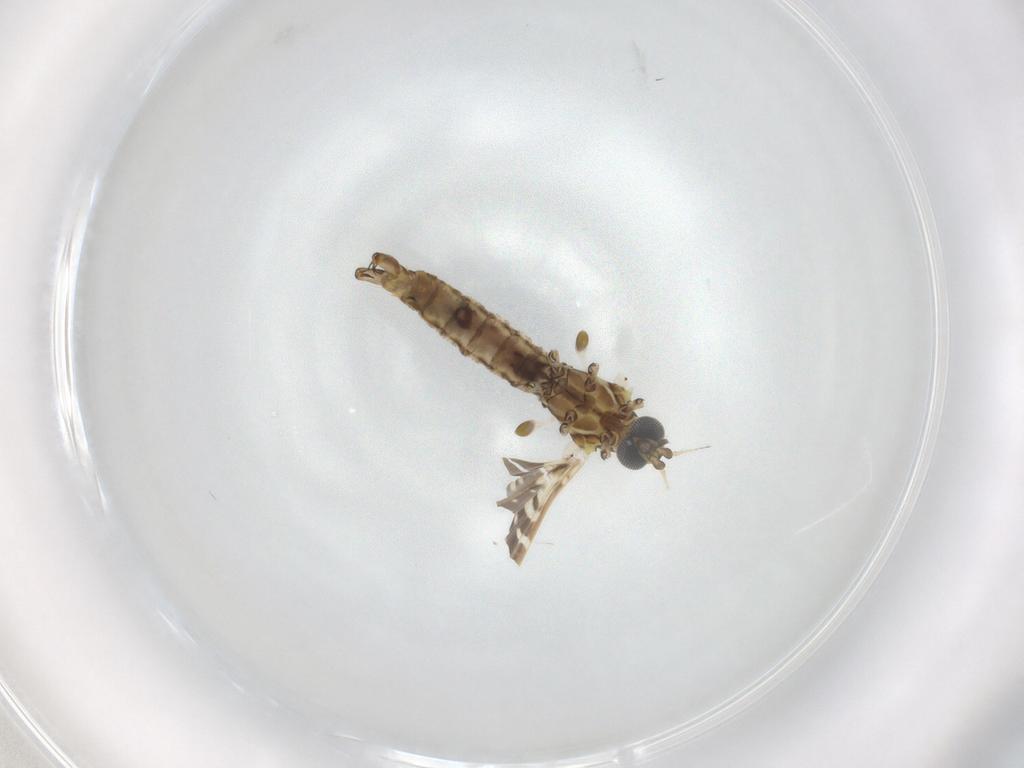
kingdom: Animalia
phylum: Arthropoda
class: Insecta
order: Diptera
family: Limoniidae
